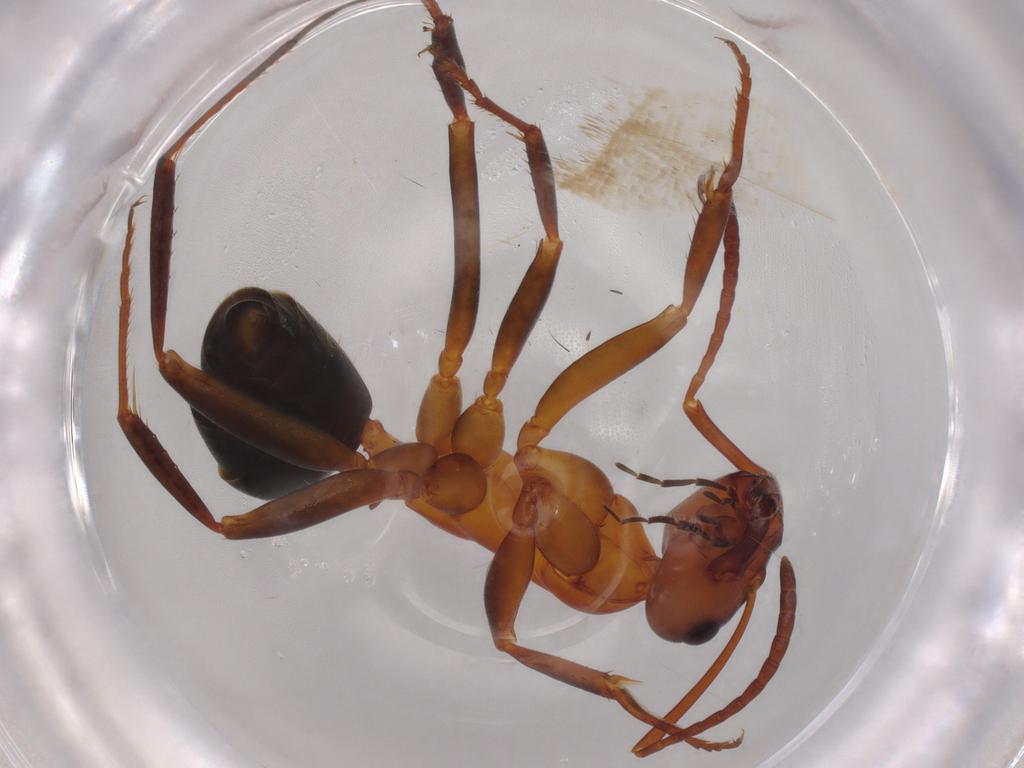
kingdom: Animalia
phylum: Arthropoda
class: Insecta
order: Hymenoptera
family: Formicidae
